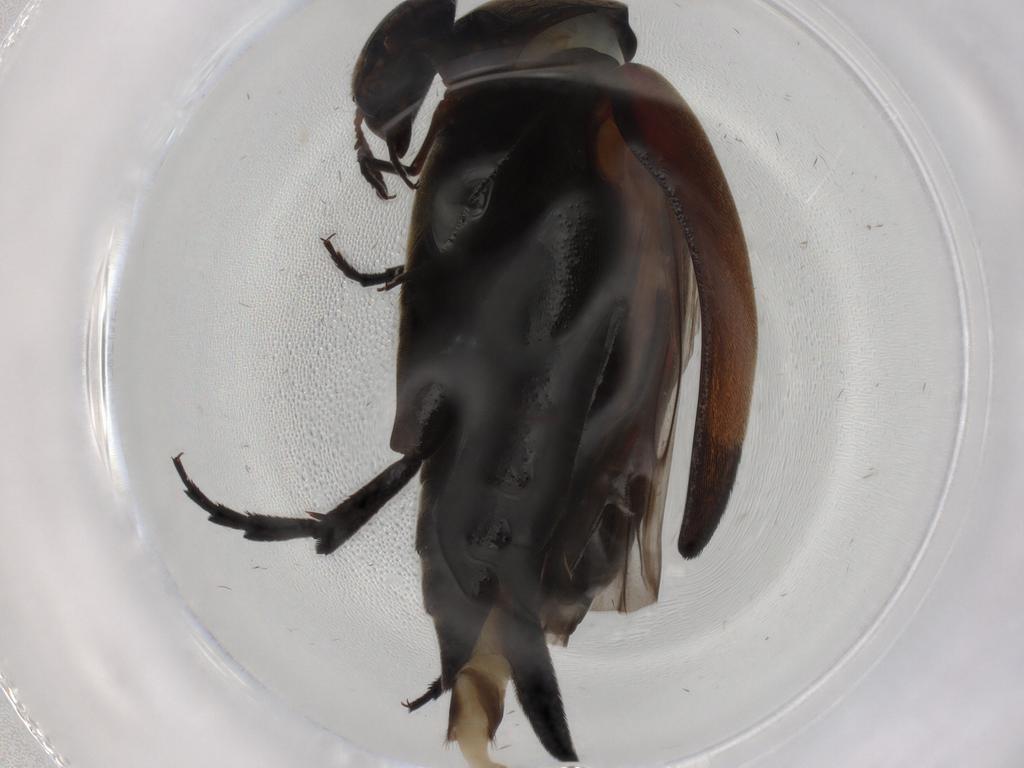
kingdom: Animalia
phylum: Arthropoda
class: Insecta
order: Coleoptera
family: Mordellidae
